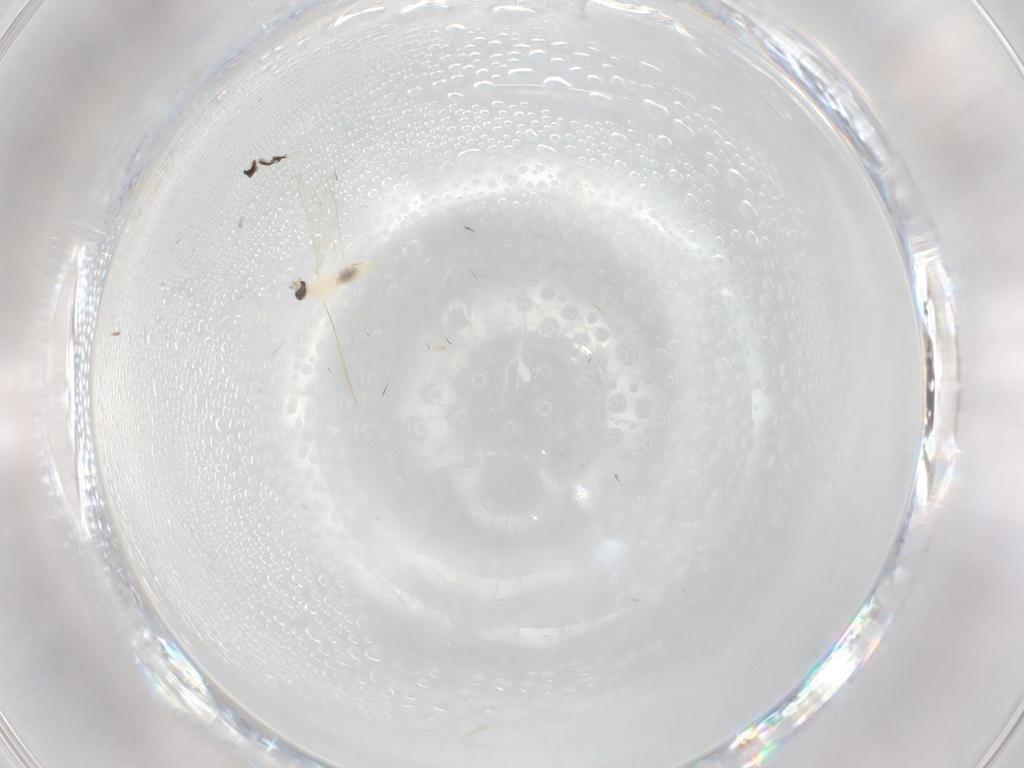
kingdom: Animalia
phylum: Arthropoda
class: Insecta
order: Diptera
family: Cecidomyiidae
